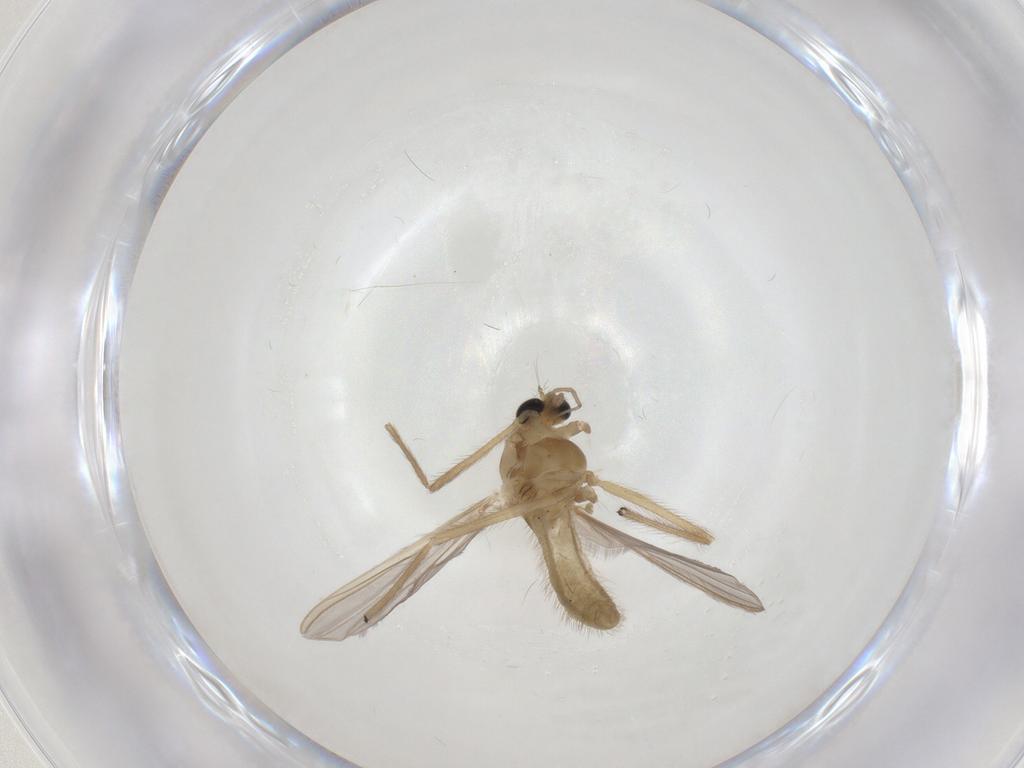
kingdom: Animalia
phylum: Arthropoda
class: Insecta
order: Diptera
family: Chironomidae
